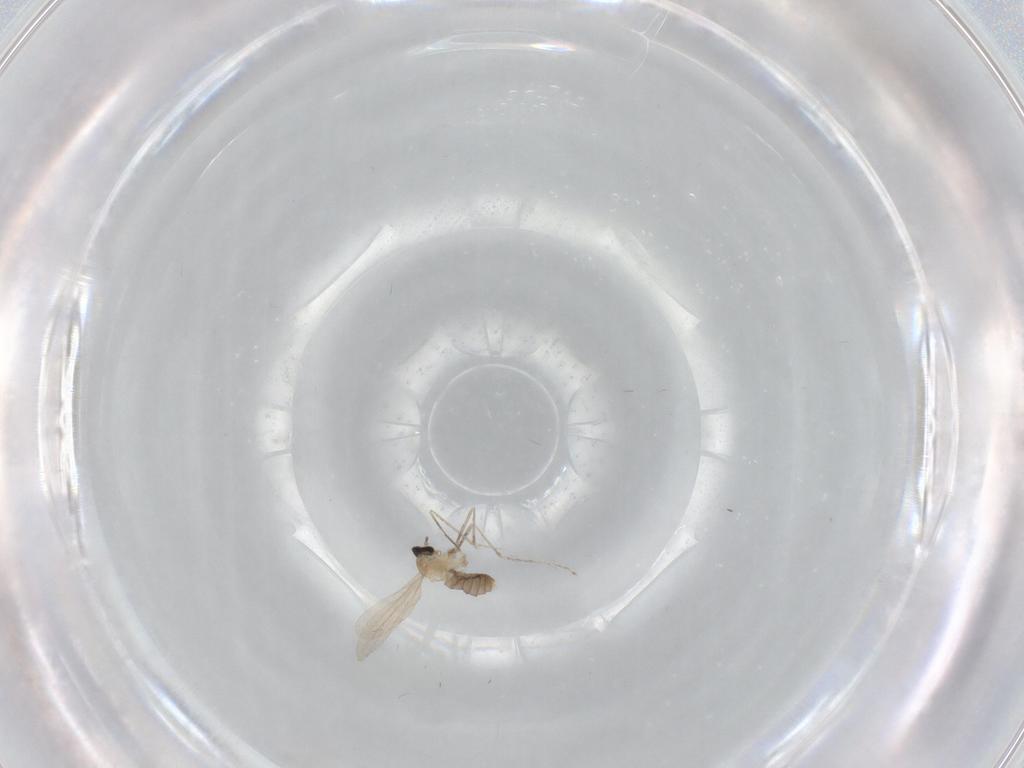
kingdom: Animalia
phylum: Arthropoda
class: Insecta
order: Diptera
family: Cecidomyiidae
